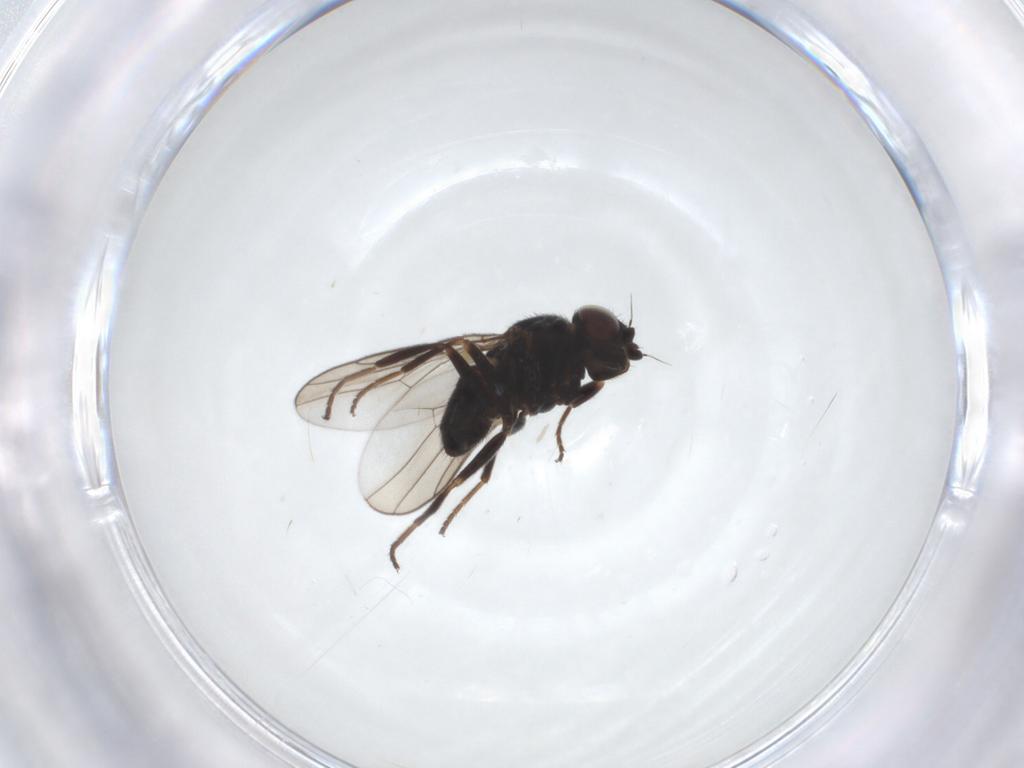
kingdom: Animalia
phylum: Arthropoda
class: Insecta
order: Diptera
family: Chloropidae
